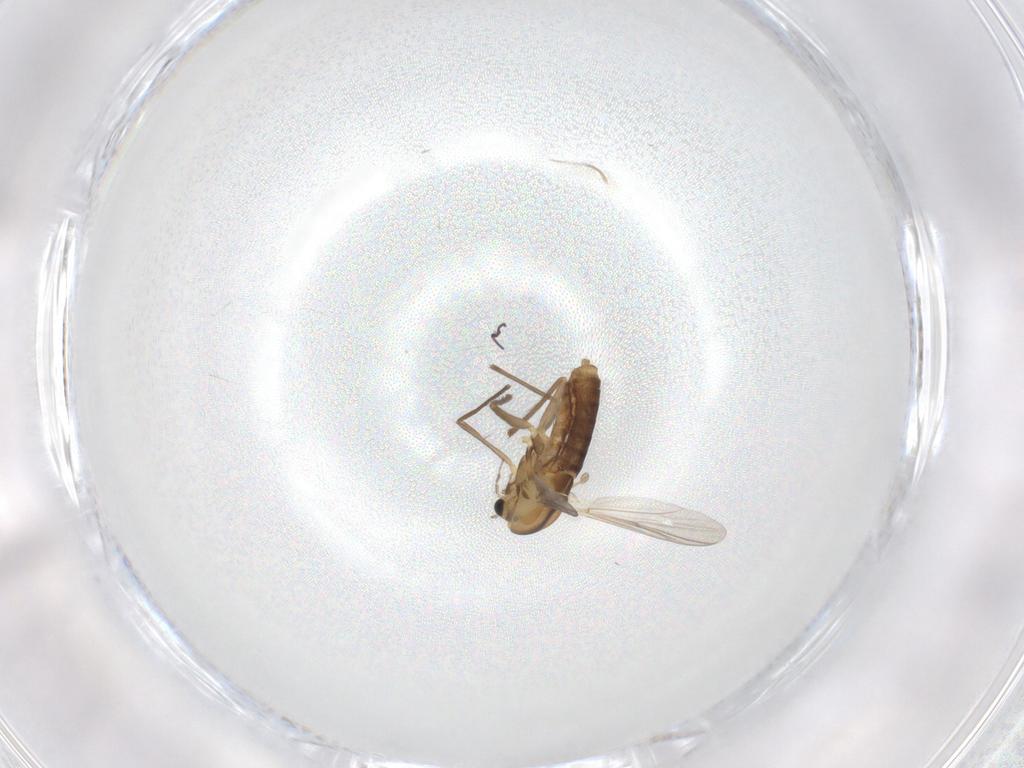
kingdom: Animalia
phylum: Arthropoda
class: Insecta
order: Diptera
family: Chironomidae
